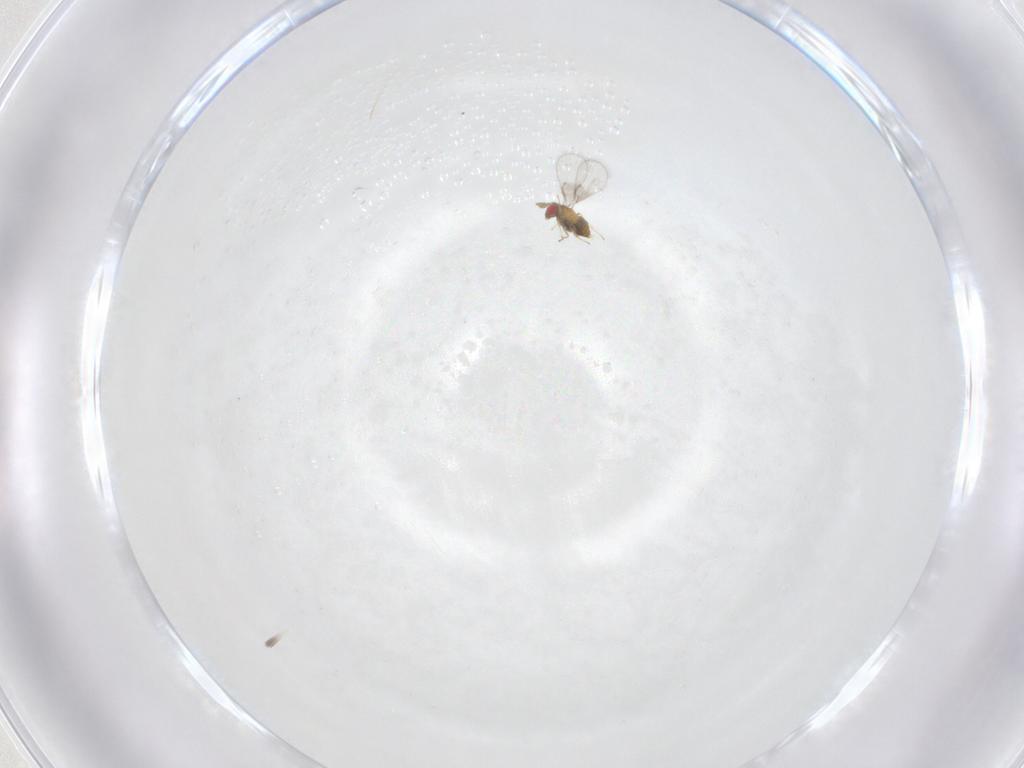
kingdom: Animalia
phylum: Arthropoda
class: Insecta
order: Hymenoptera
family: Trichogrammatidae
